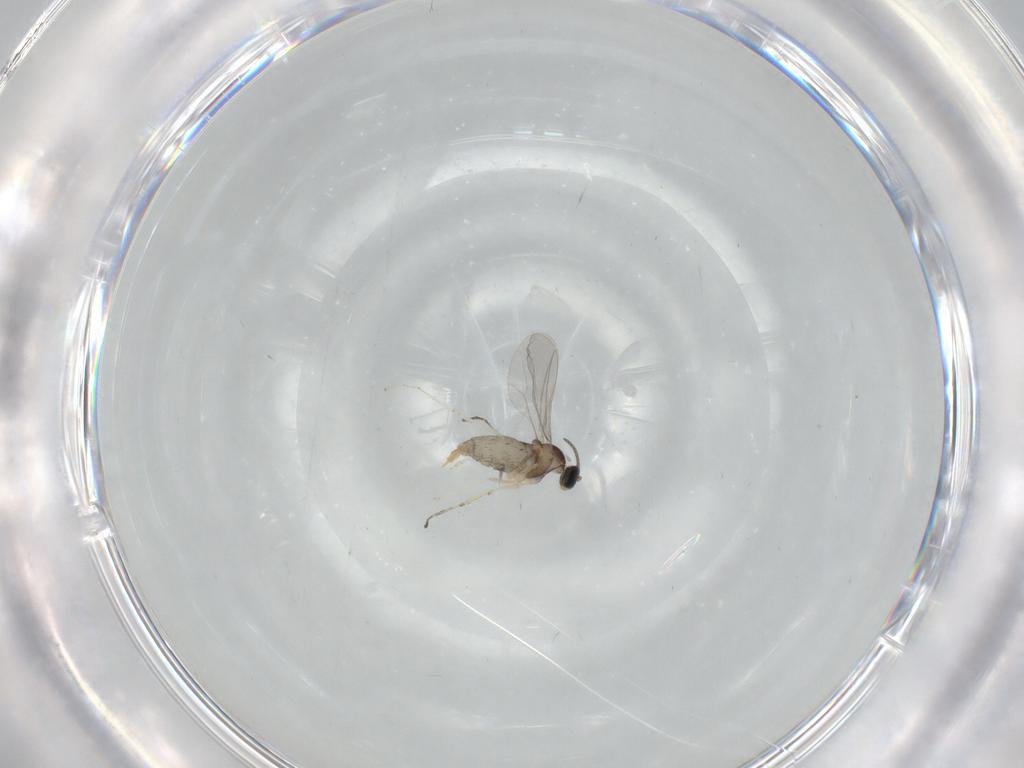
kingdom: Animalia
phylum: Arthropoda
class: Insecta
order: Diptera
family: Cecidomyiidae
